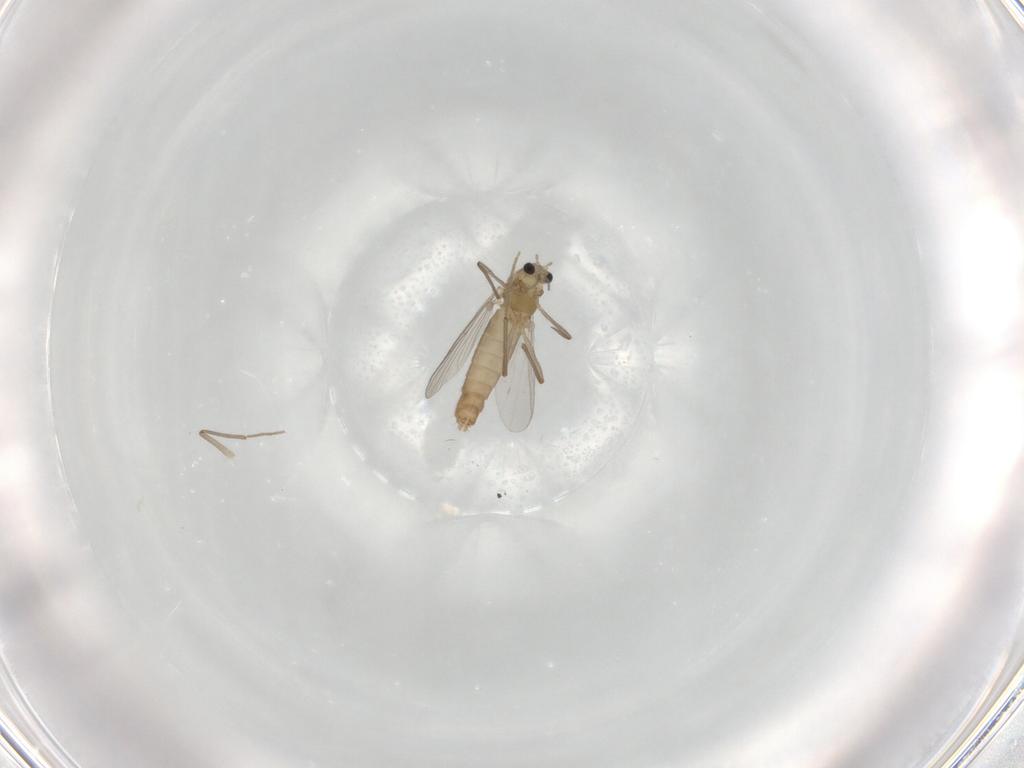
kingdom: Animalia
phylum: Arthropoda
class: Insecta
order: Diptera
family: Chironomidae
